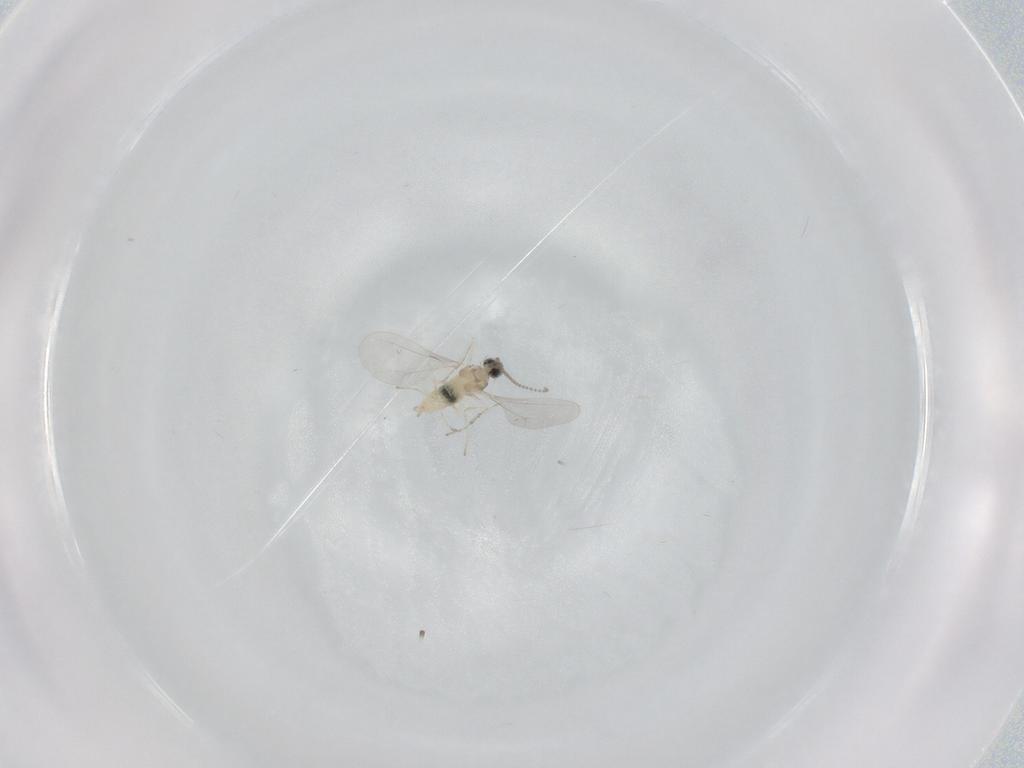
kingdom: Animalia
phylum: Arthropoda
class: Insecta
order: Diptera
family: Cecidomyiidae
